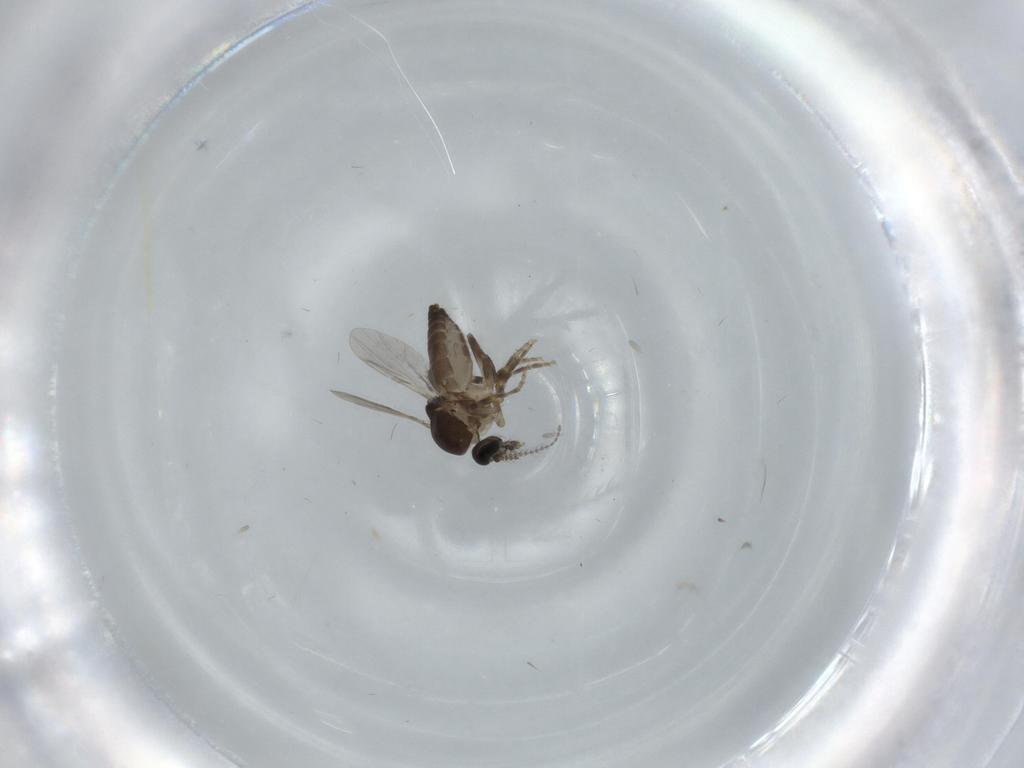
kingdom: Animalia
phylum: Arthropoda
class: Insecta
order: Diptera
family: Ceratopogonidae
